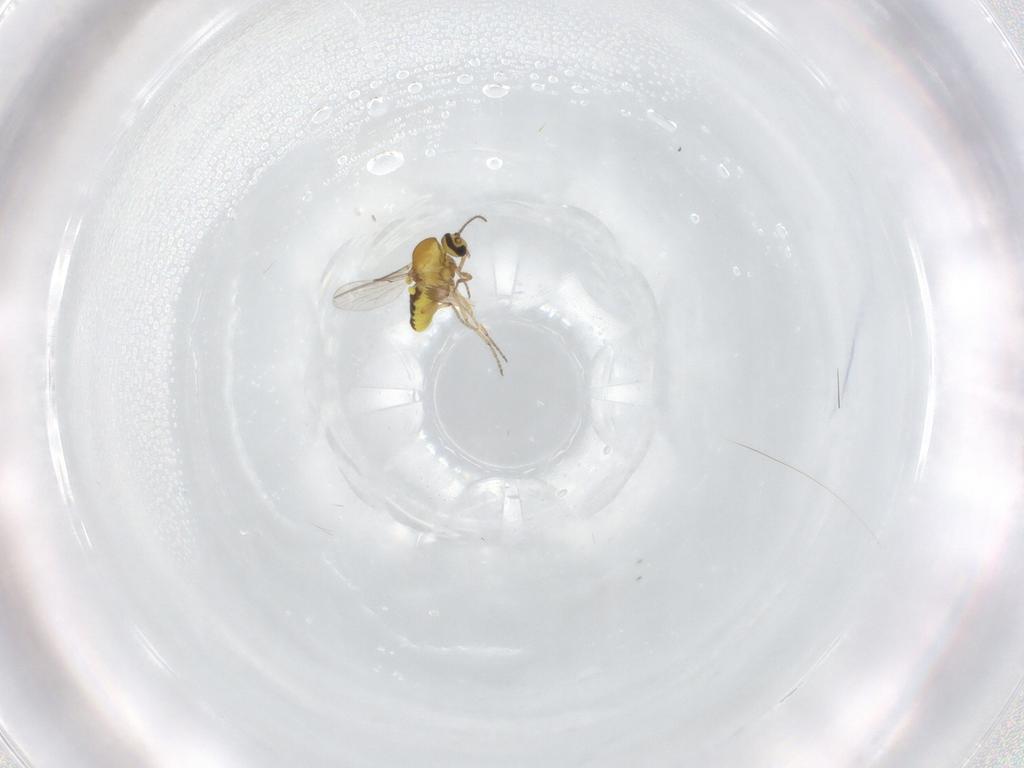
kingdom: Animalia
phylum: Arthropoda
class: Insecta
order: Diptera
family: Ceratopogonidae
